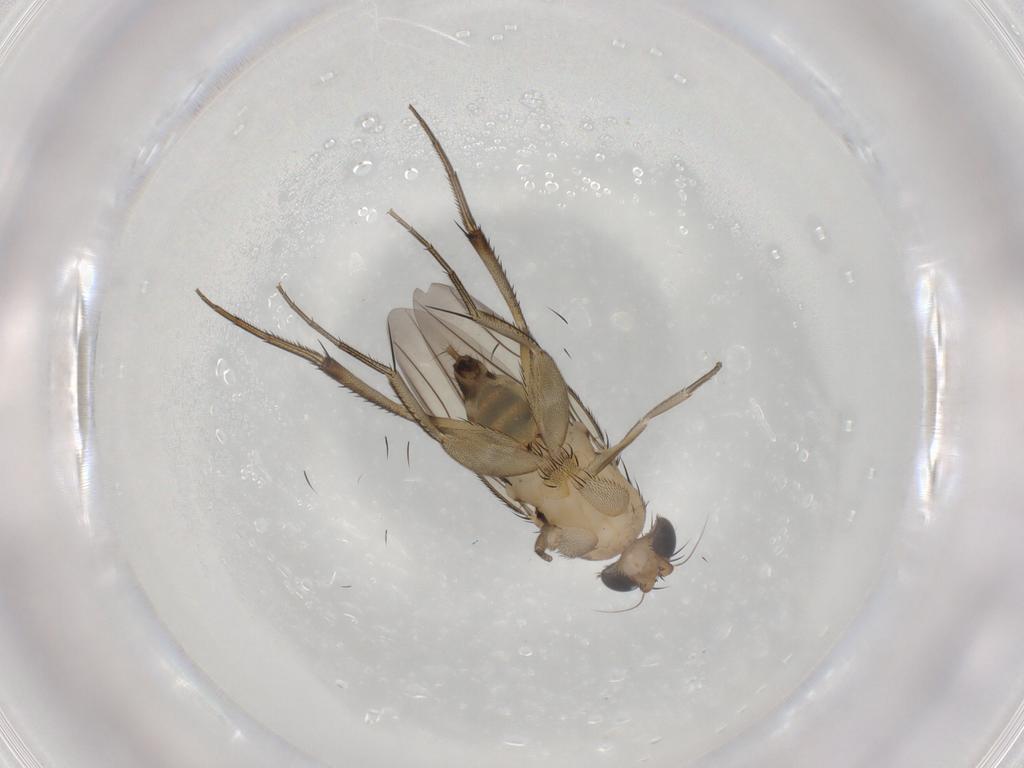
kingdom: Animalia
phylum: Arthropoda
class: Insecta
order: Diptera
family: Phoridae
